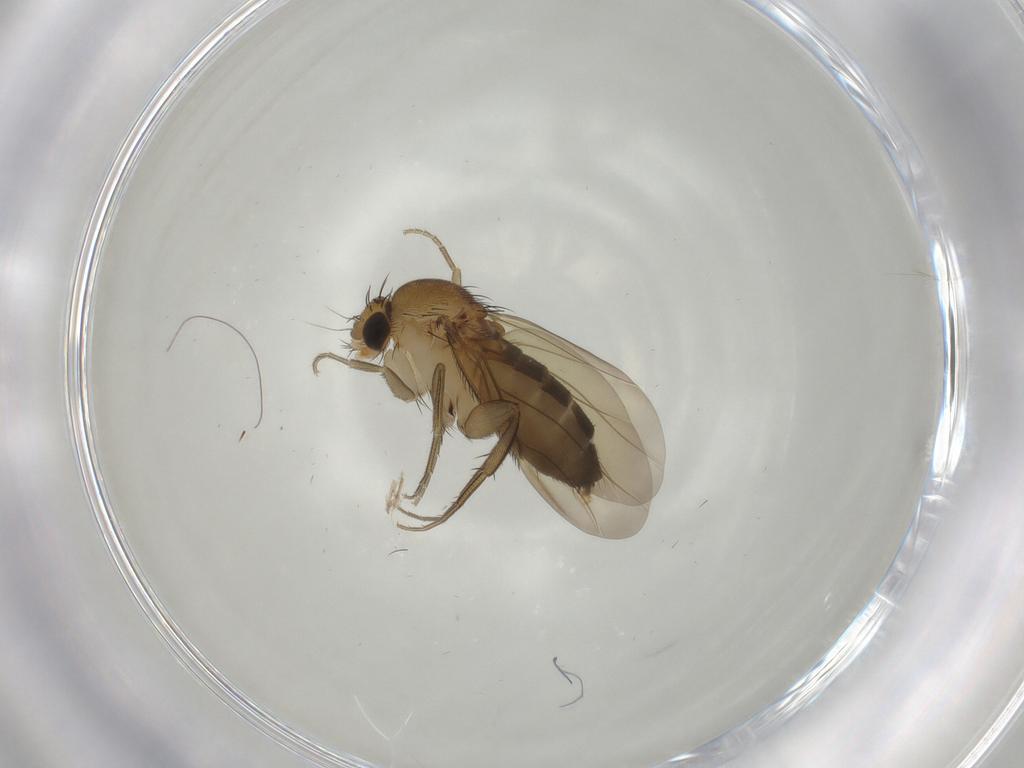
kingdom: Animalia
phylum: Arthropoda
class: Insecta
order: Diptera
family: Phoridae
